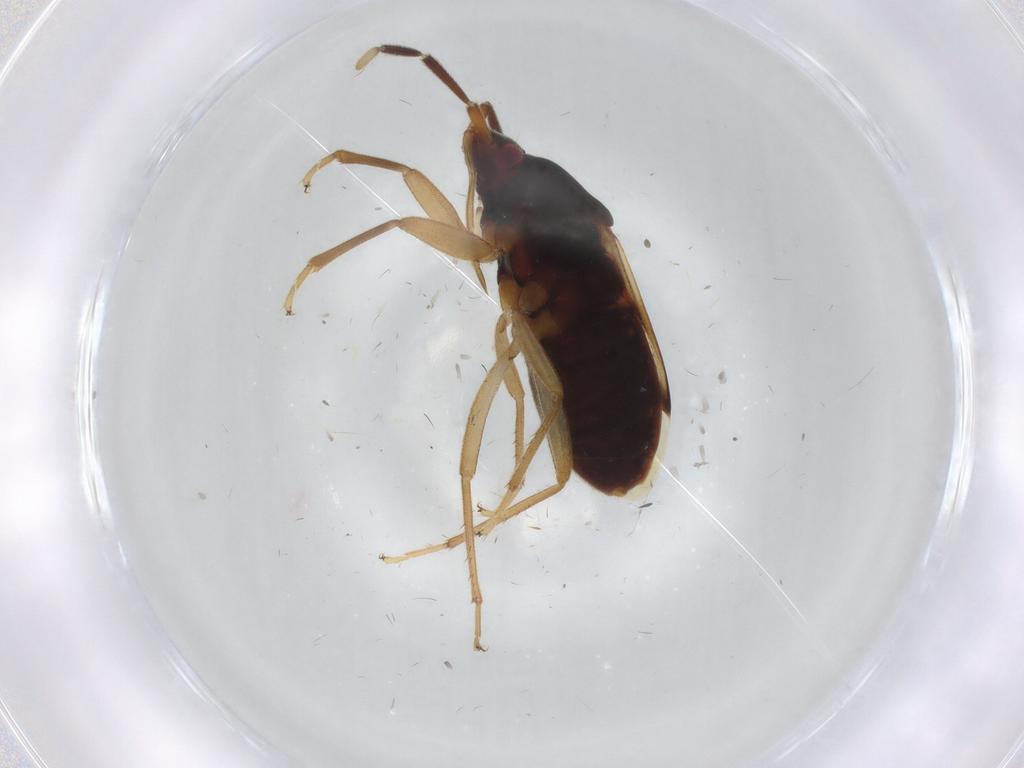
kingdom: Animalia
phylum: Arthropoda
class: Insecta
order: Hemiptera
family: Rhyparochromidae
